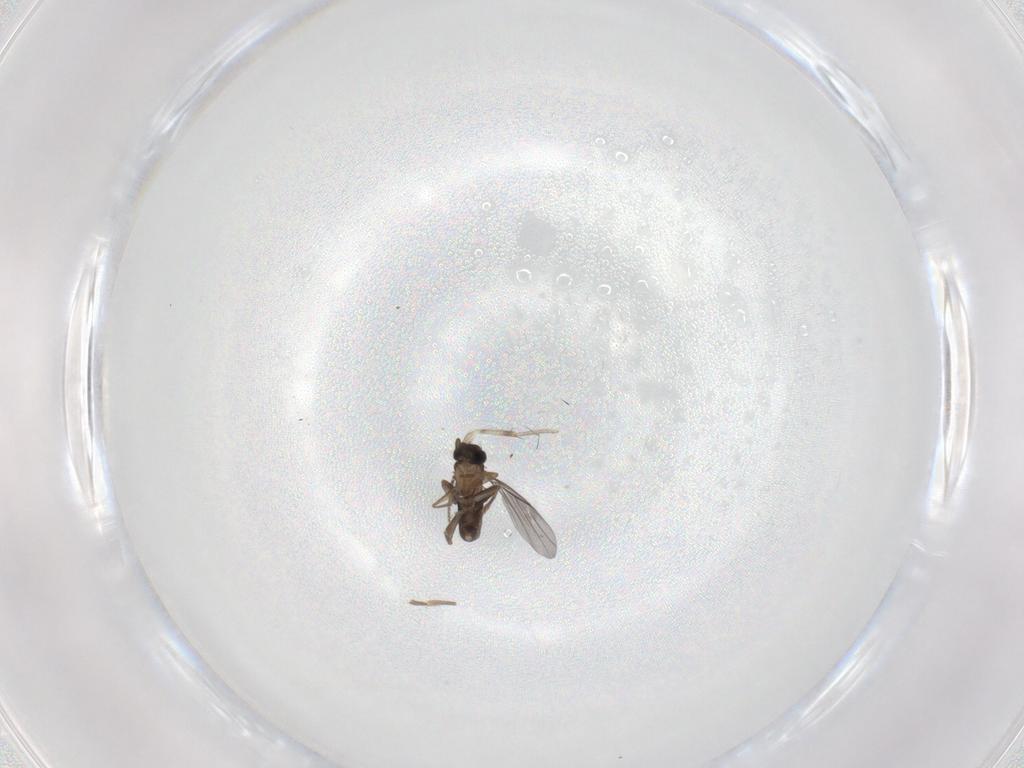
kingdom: Animalia
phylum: Arthropoda
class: Insecta
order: Diptera
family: Drosophilidae
